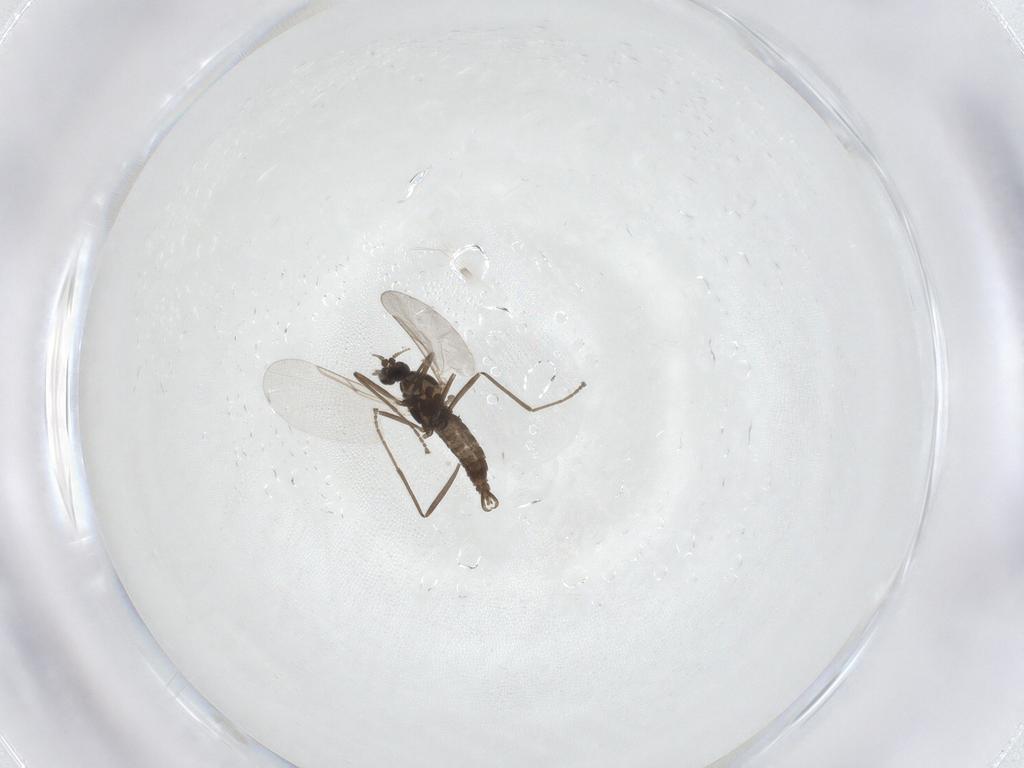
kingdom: Animalia
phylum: Arthropoda
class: Insecta
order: Diptera
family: Cecidomyiidae
